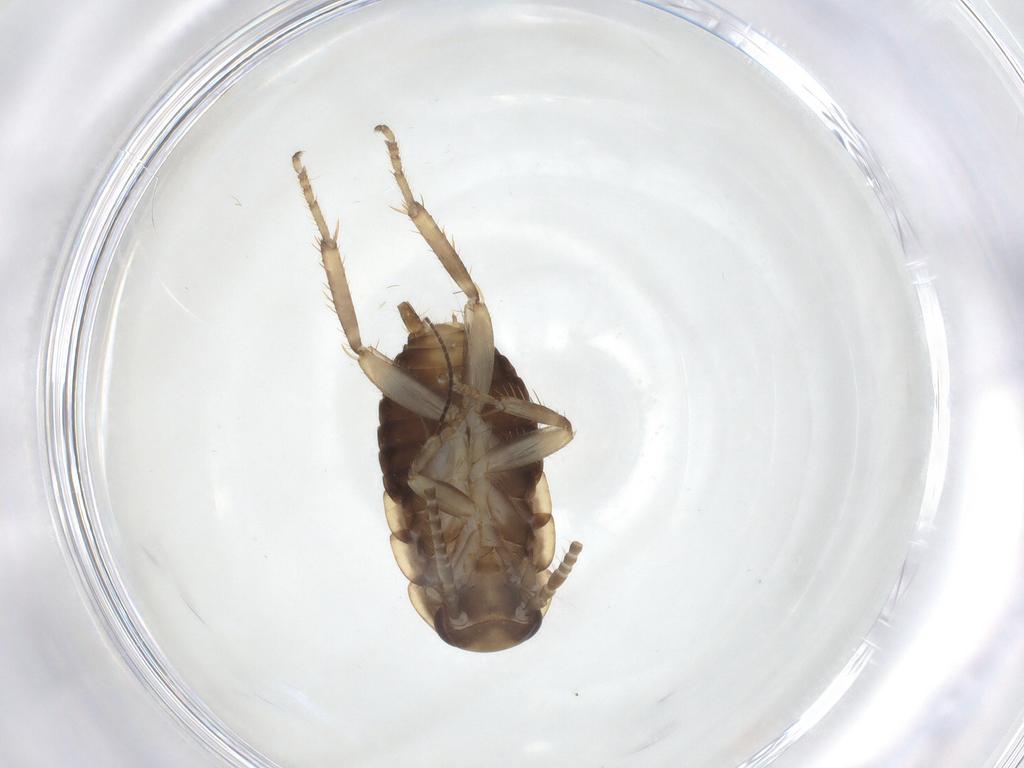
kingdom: Animalia
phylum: Arthropoda
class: Insecta
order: Blattodea
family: Ectobiidae
